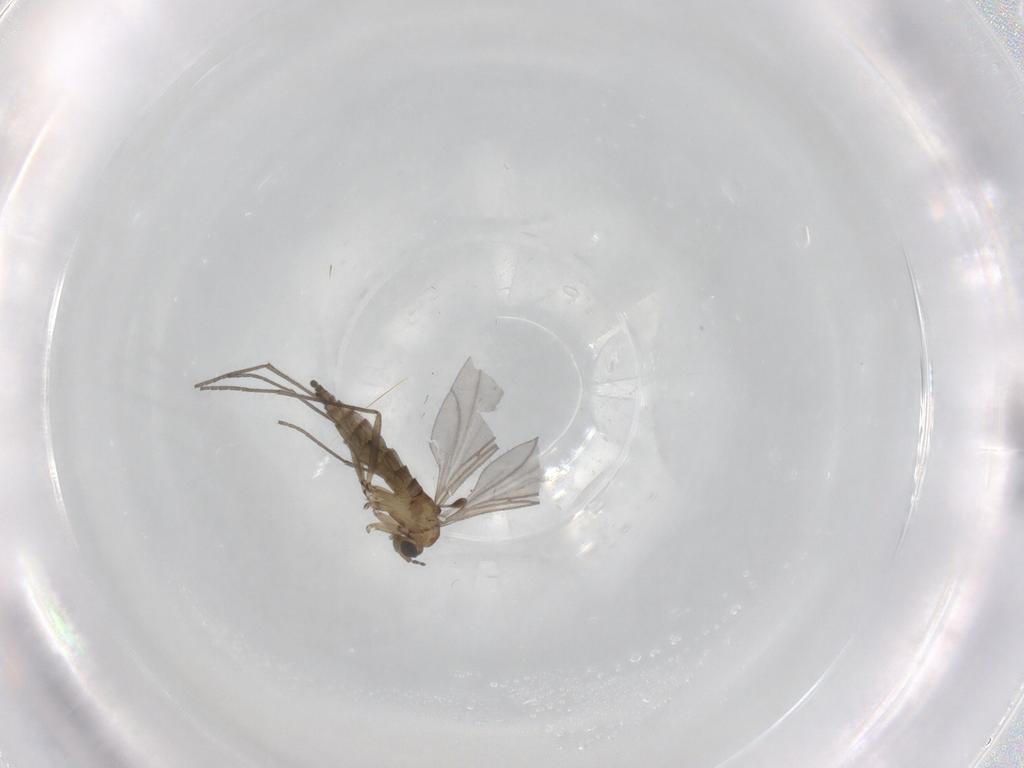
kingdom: Animalia
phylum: Arthropoda
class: Insecta
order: Diptera
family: Sciaridae
